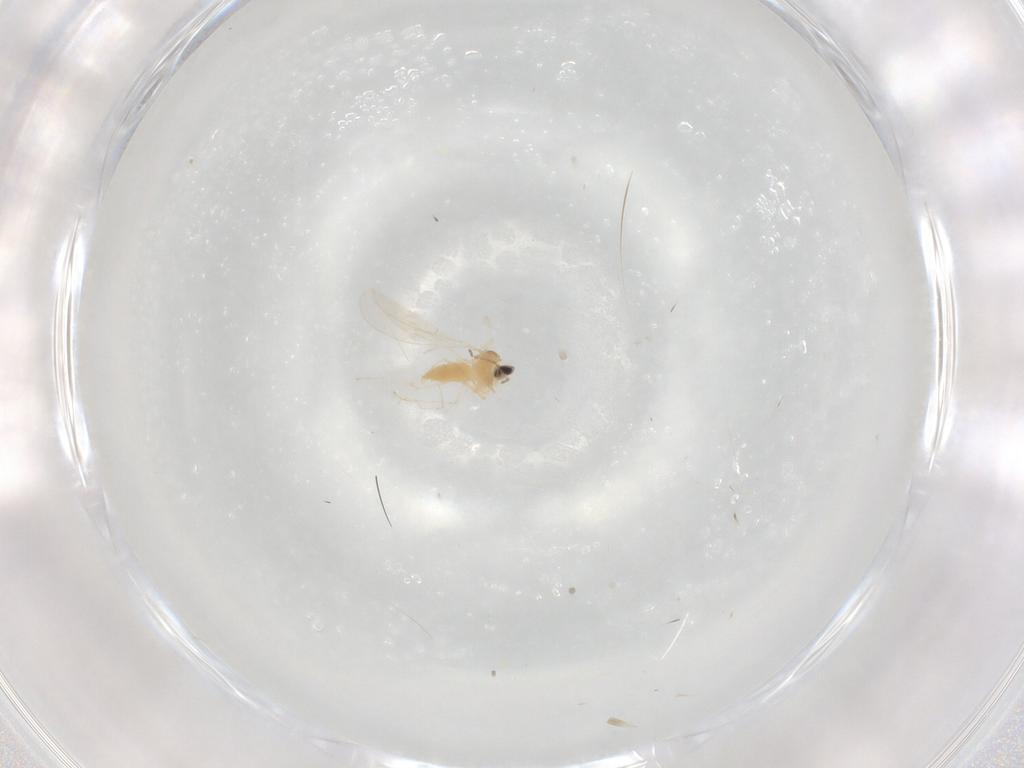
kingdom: Animalia
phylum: Arthropoda
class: Insecta
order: Diptera
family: Cecidomyiidae
